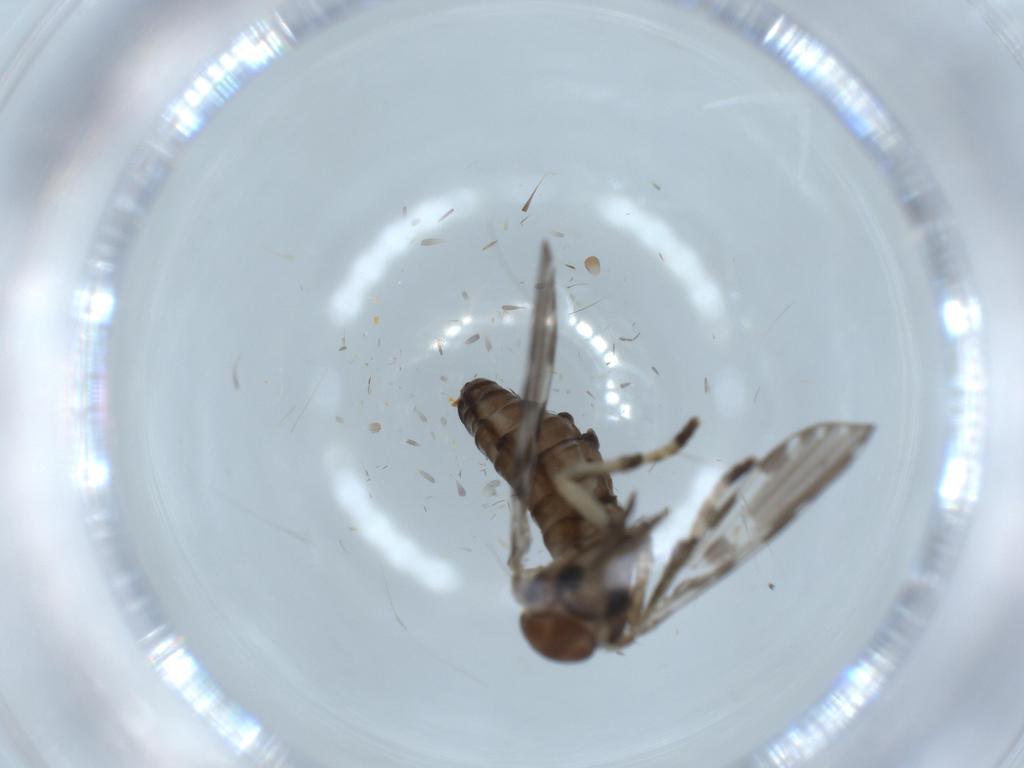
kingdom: Animalia
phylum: Arthropoda
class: Insecta
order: Diptera
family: Psychodidae
